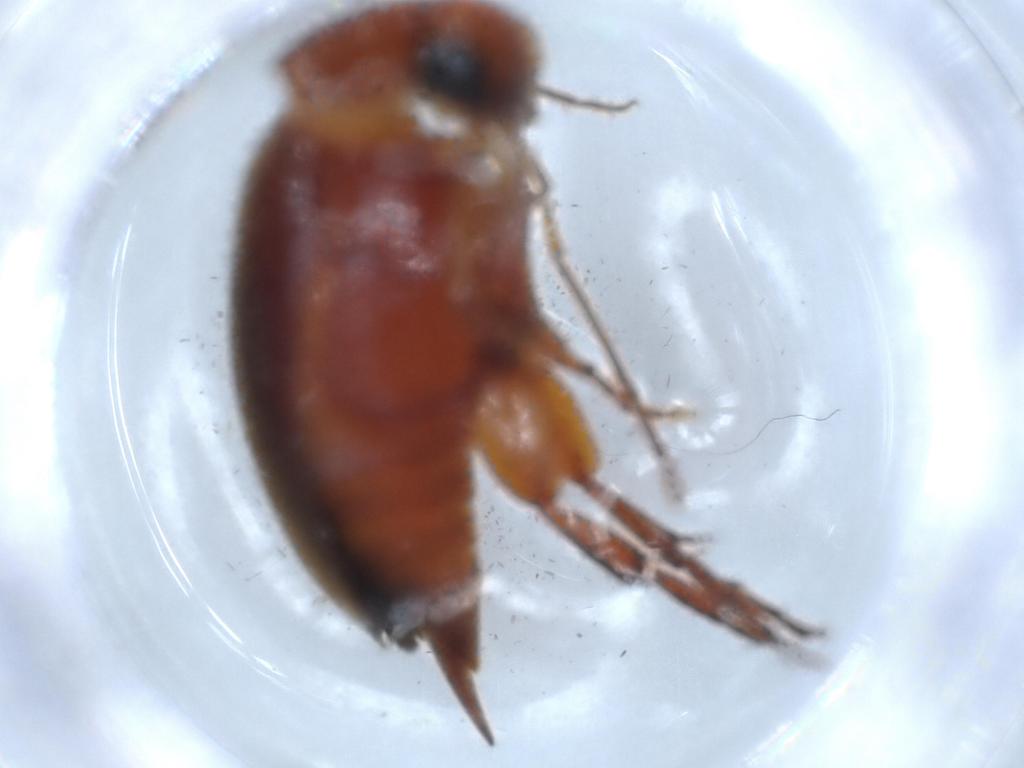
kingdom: Animalia
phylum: Arthropoda
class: Insecta
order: Coleoptera
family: Mordellidae
